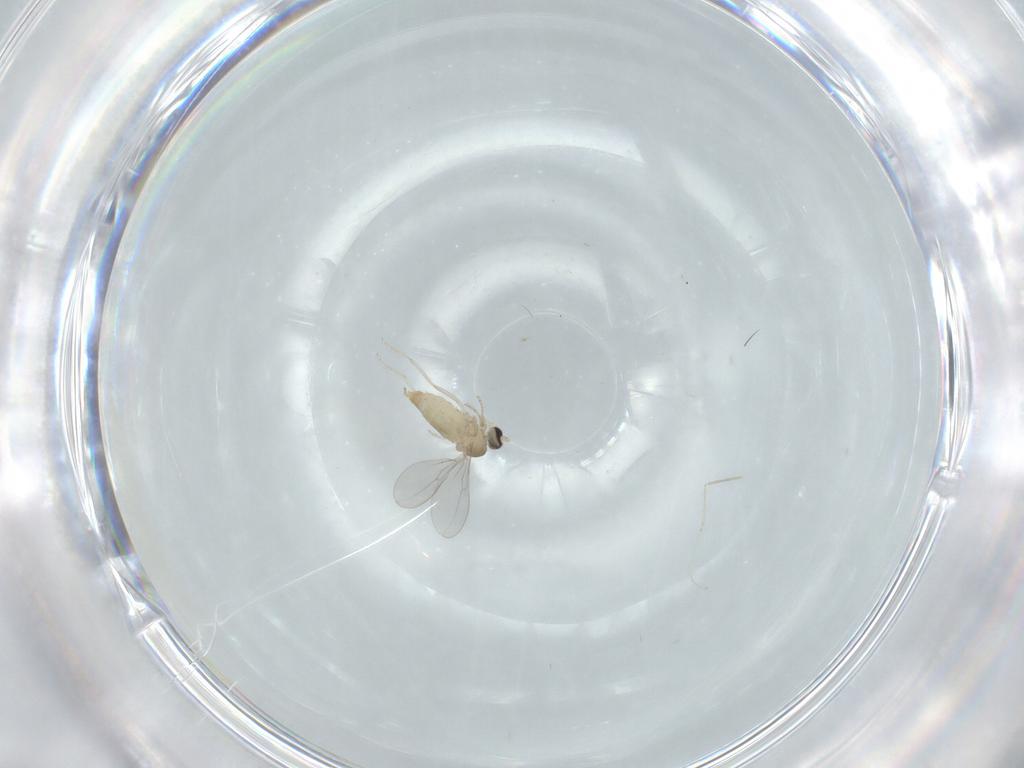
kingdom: Animalia
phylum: Arthropoda
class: Insecta
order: Diptera
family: Cecidomyiidae
